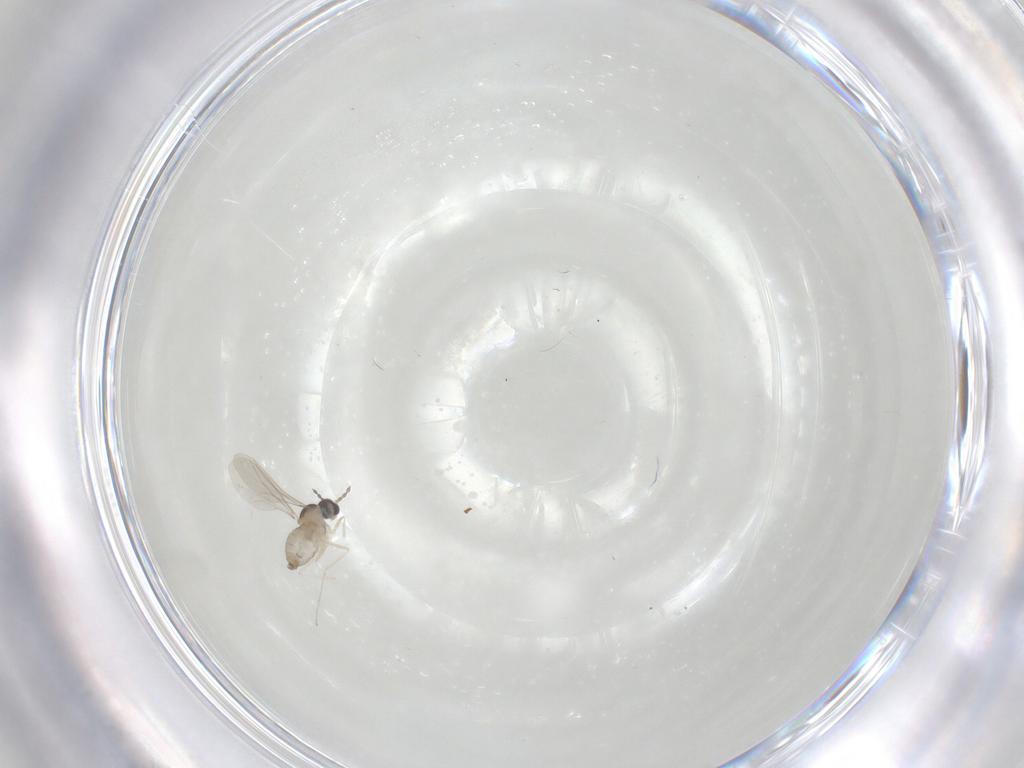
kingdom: Animalia
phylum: Arthropoda
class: Insecta
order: Diptera
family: Cecidomyiidae
